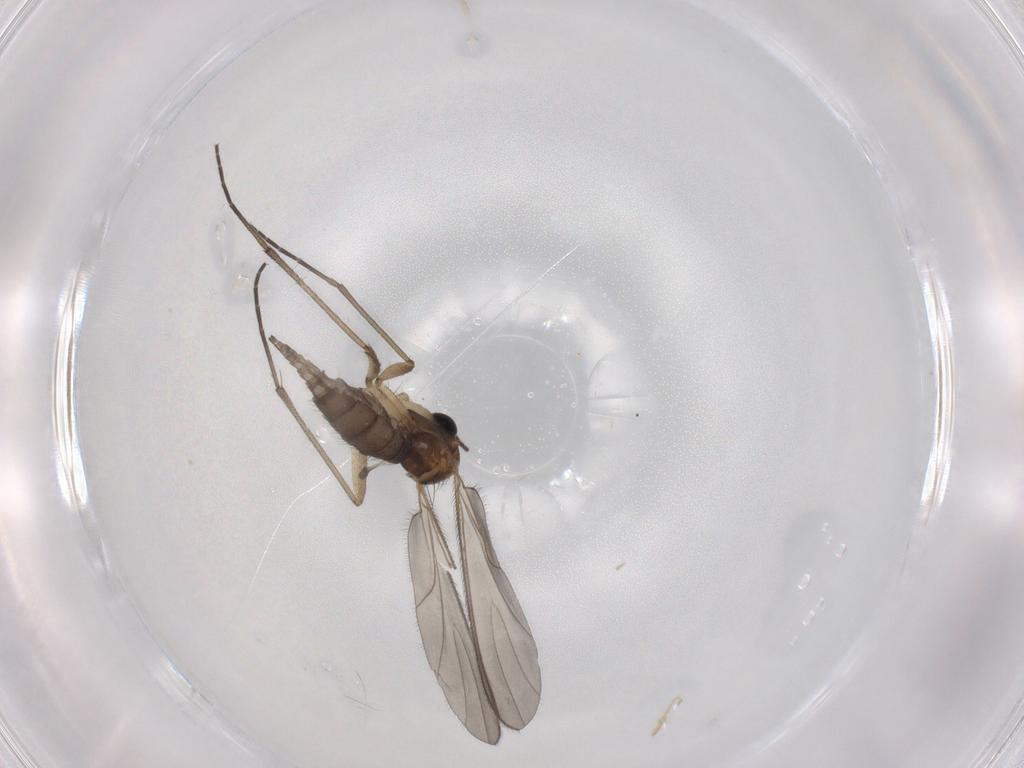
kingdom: Animalia
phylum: Arthropoda
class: Insecta
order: Diptera
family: Sciaridae
